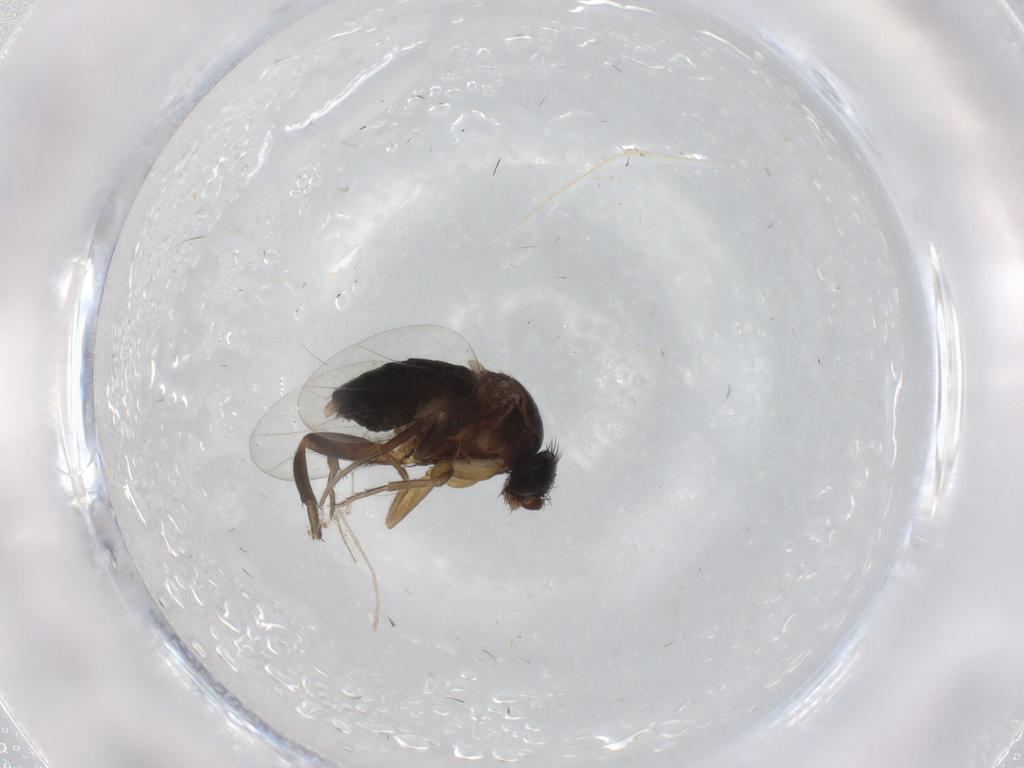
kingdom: Animalia
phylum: Arthropoda
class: Insecta
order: Diptera
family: Phoridae
